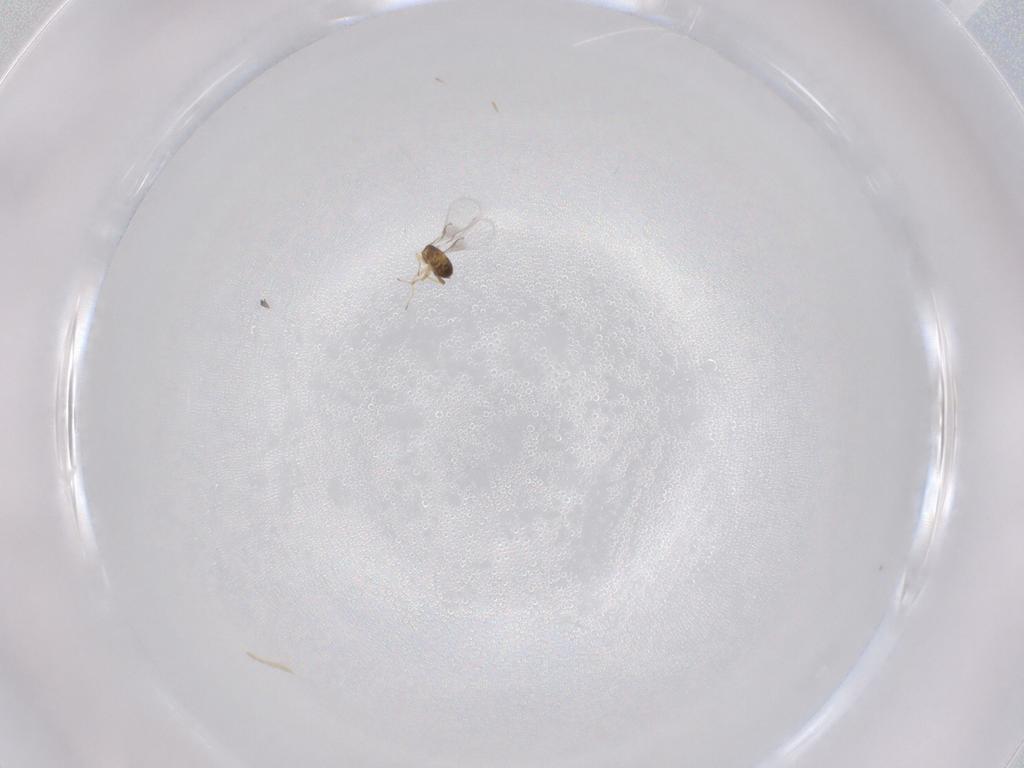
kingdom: Animalia
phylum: Arthropoda
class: Insecta
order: Hymenoptera
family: Trichogrammatidae
